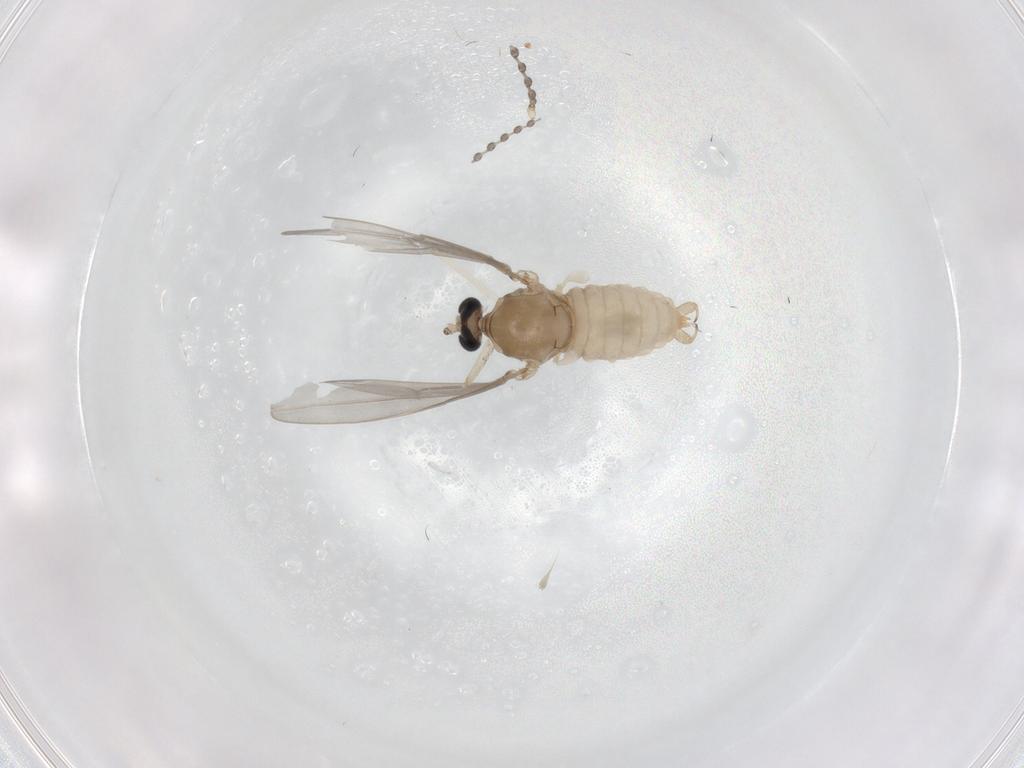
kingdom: Animalia
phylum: Arthropoda
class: Insecta
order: Diptera
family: Cecidomyiidae
